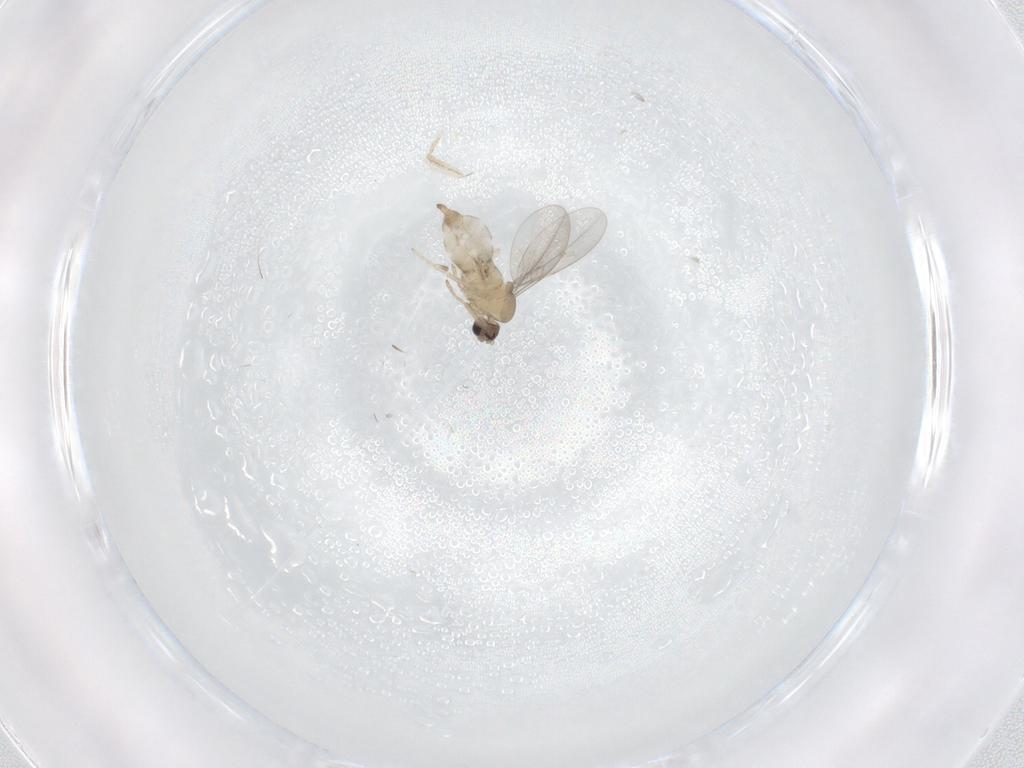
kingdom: Animalia
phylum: Arthropoda
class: Insecta
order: Diptera
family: Cecidomyiidae
